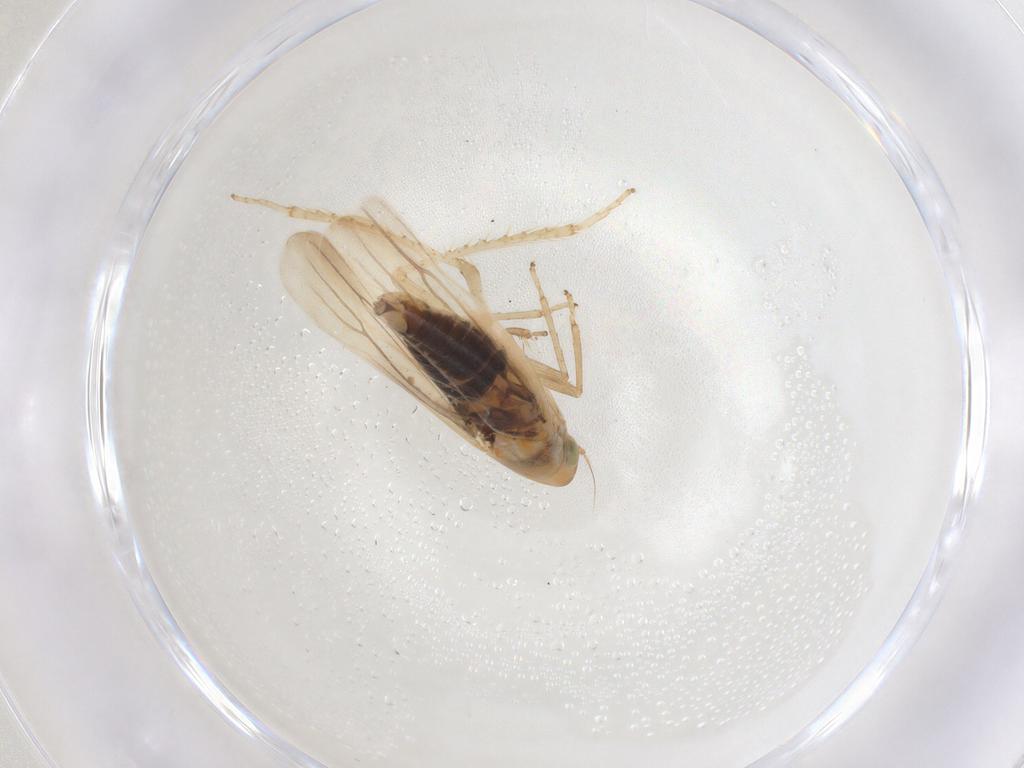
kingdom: Animalia
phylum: Arthropoda
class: Insecta
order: Hemiptera
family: Cicadellidae
